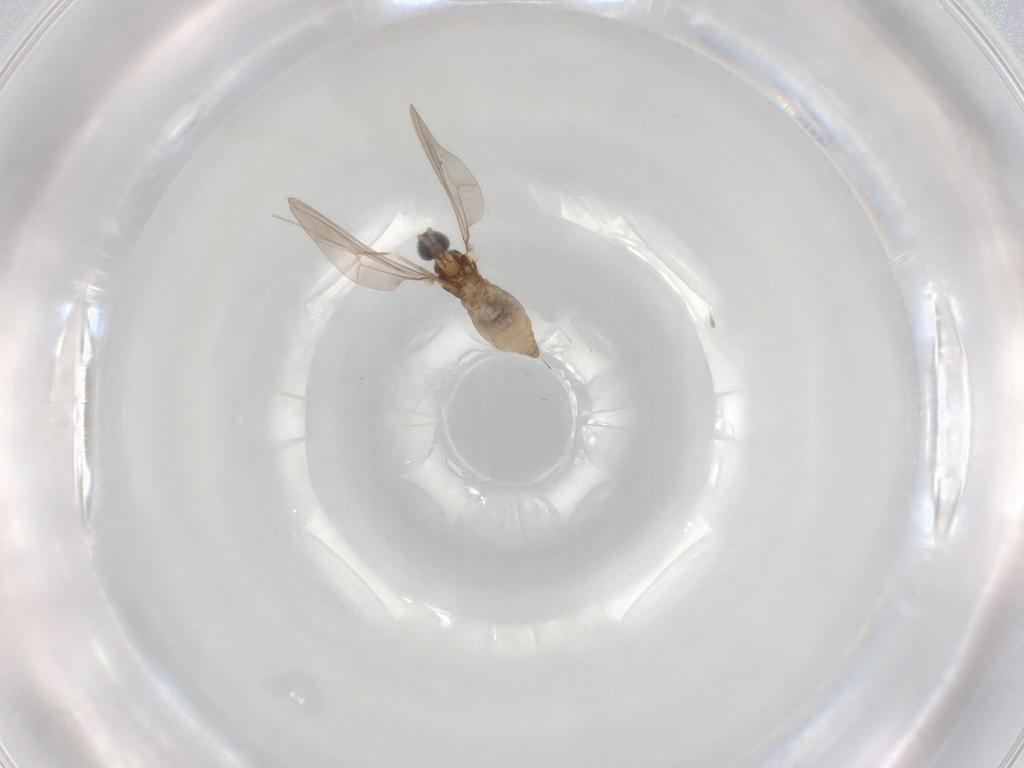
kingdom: Animalia
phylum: Arthropoda
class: Insecta
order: Diptera
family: Cecidomyiidae
